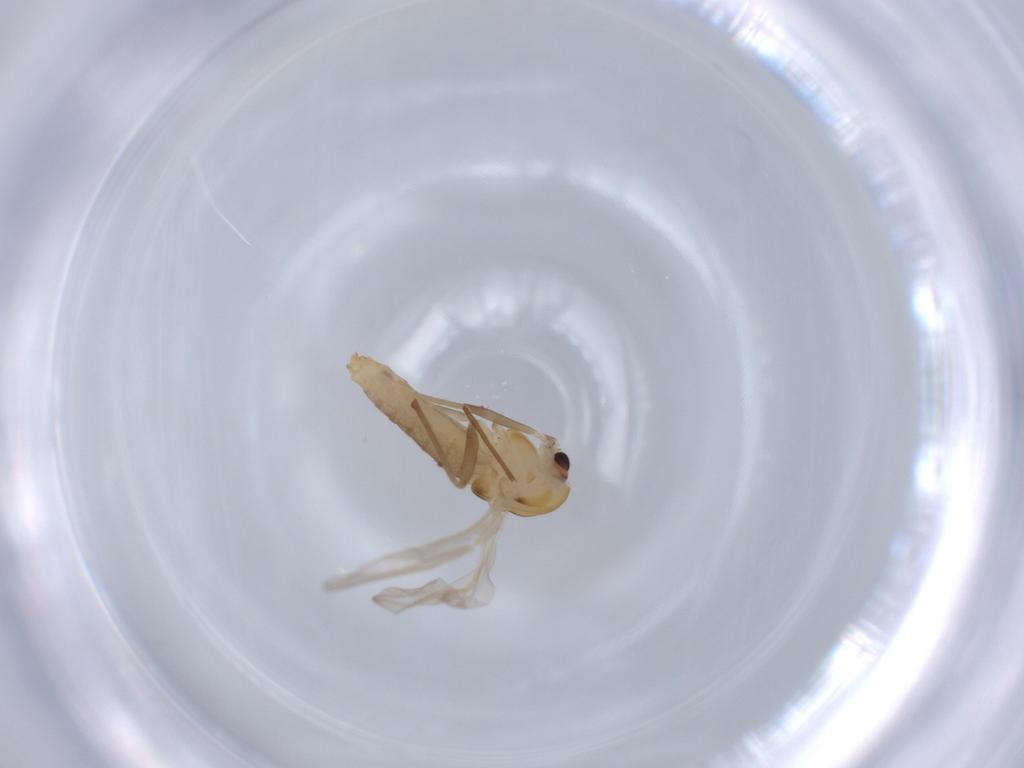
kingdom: Animalia
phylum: Arthropoda
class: Insecta
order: Diptera
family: Chironomidae
